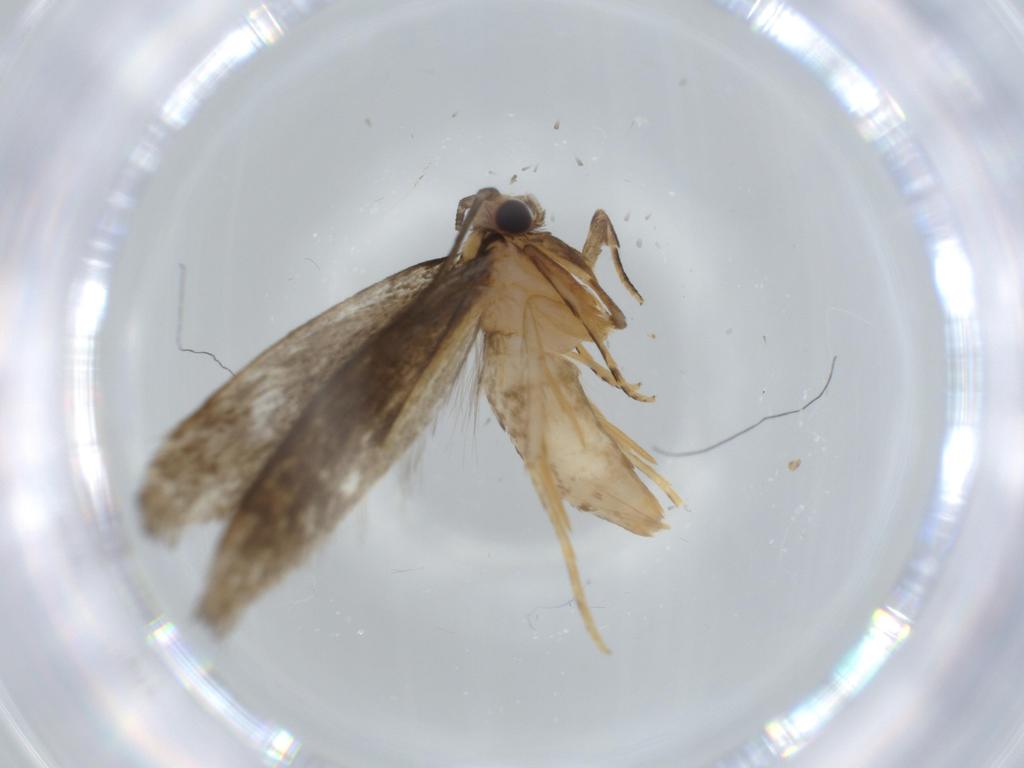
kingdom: Animalia
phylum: Arthropoda
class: Insecta
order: Lepidoptera
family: Tineidae
